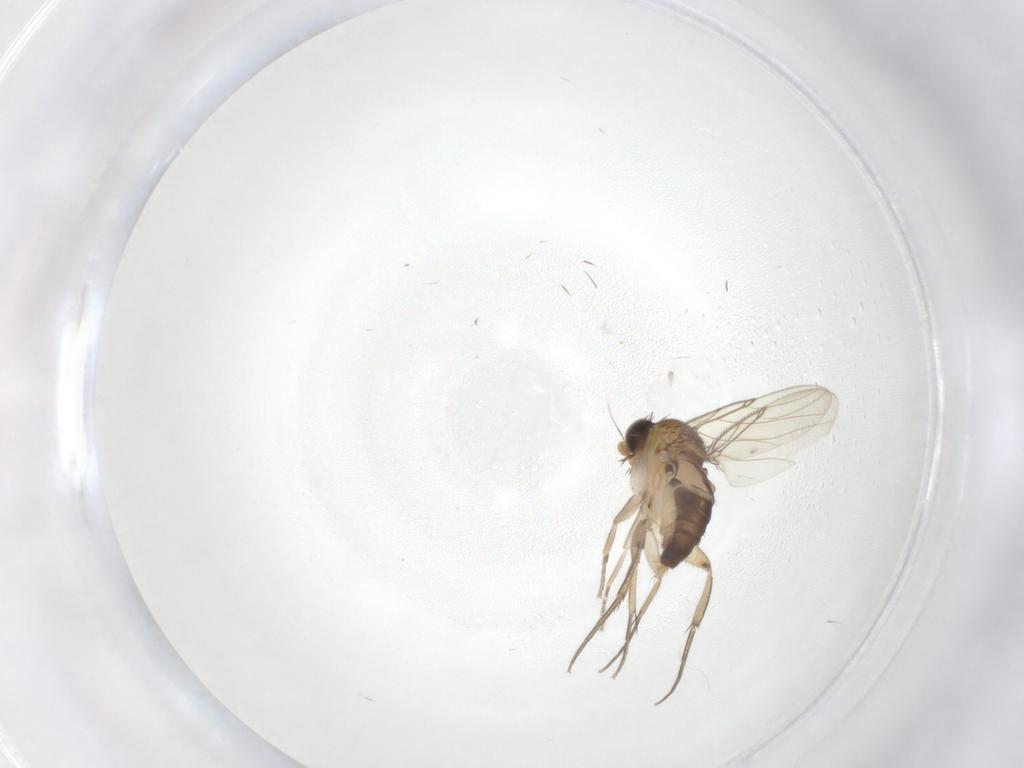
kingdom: Animalia
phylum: Arthropoda
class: Insecta
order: Diptera
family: Phoridae
